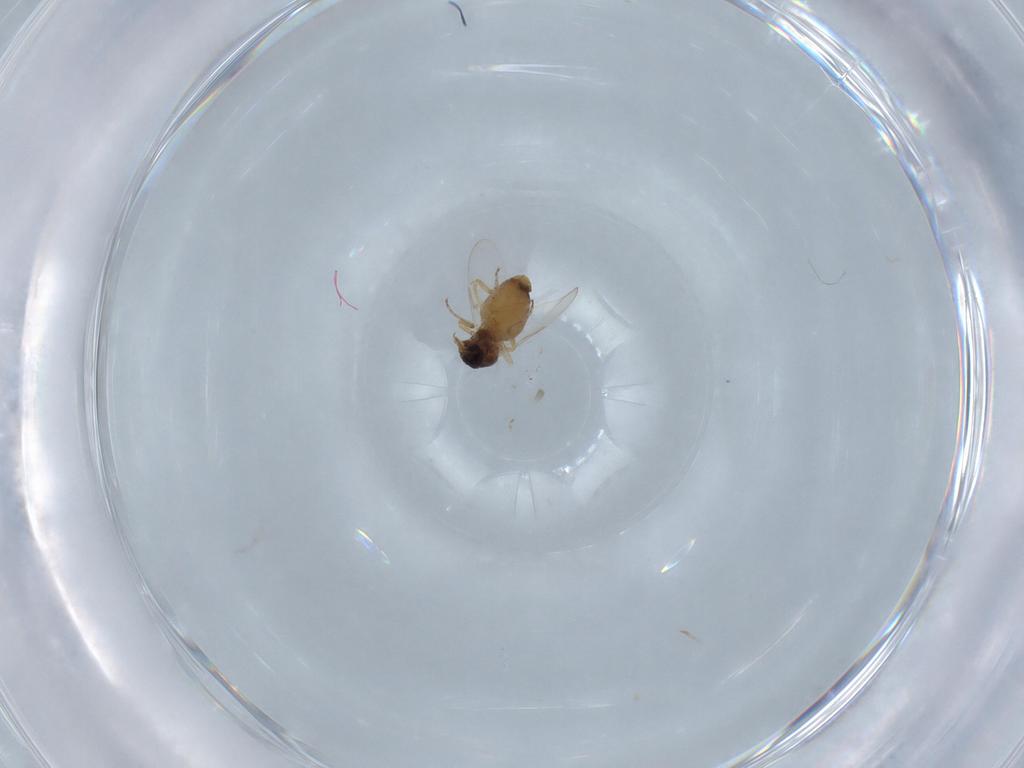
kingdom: Animalia
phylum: Arthropoda
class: Insecta
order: Diptera
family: Ceratopogonidae
